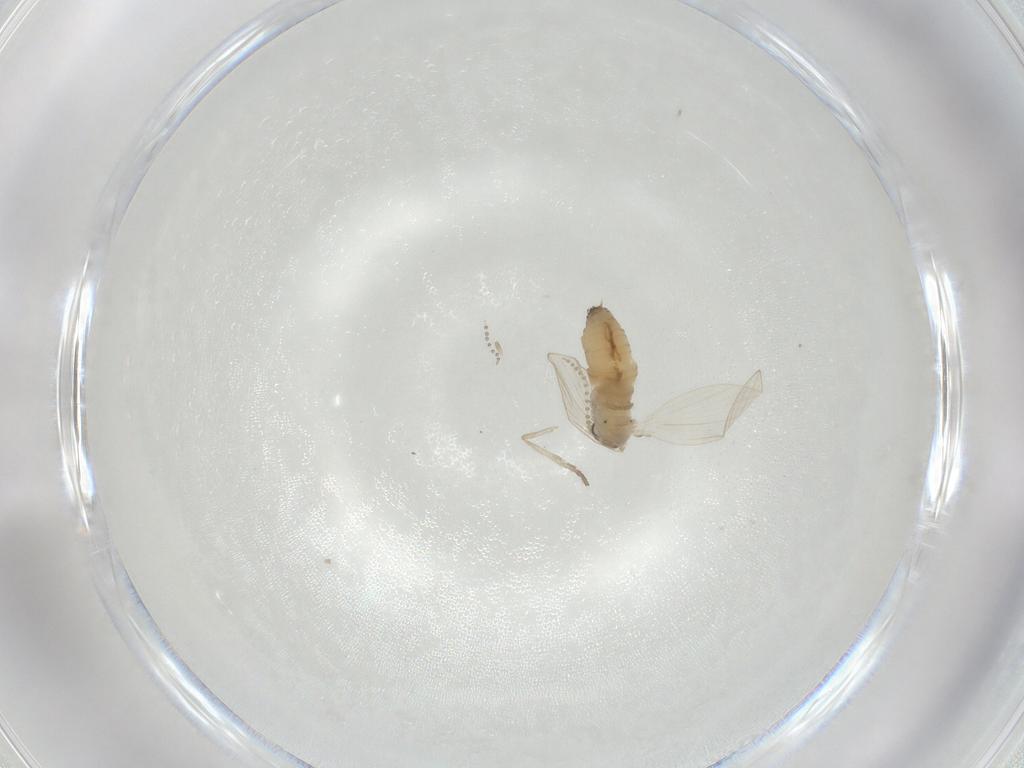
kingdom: Animalia
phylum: Arthropoda
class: Insecta
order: Diptera
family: Psychodidae
